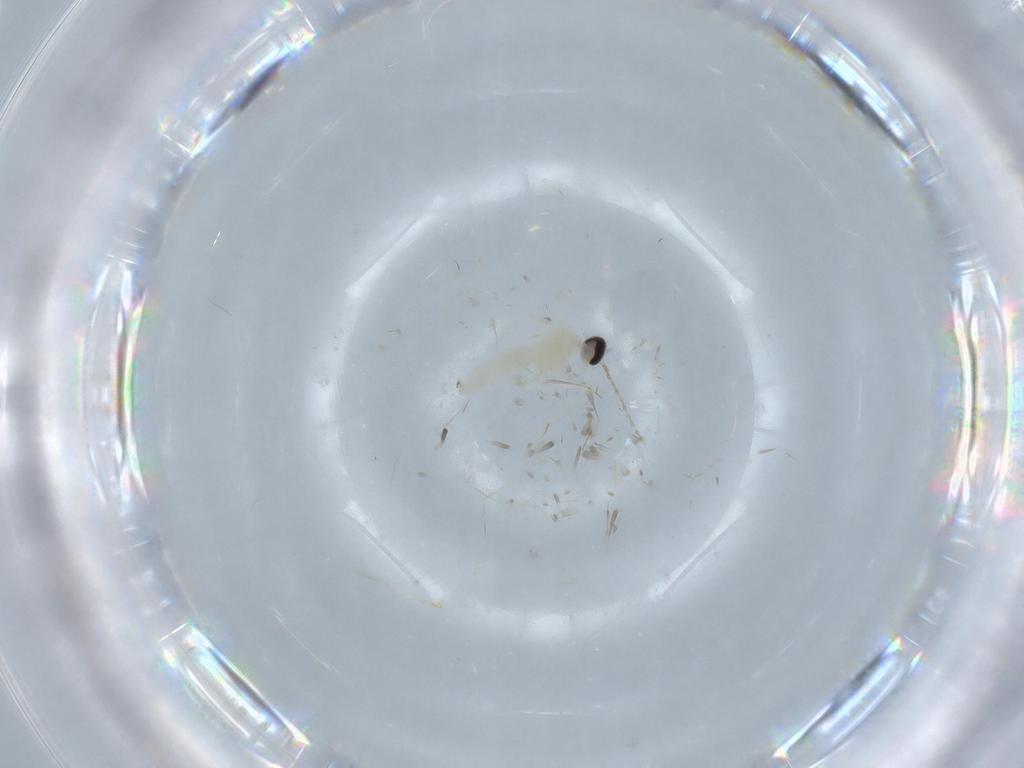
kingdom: Animalia
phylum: Arthropoda
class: Insecta
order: Diptera
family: Cecidomyiidae
